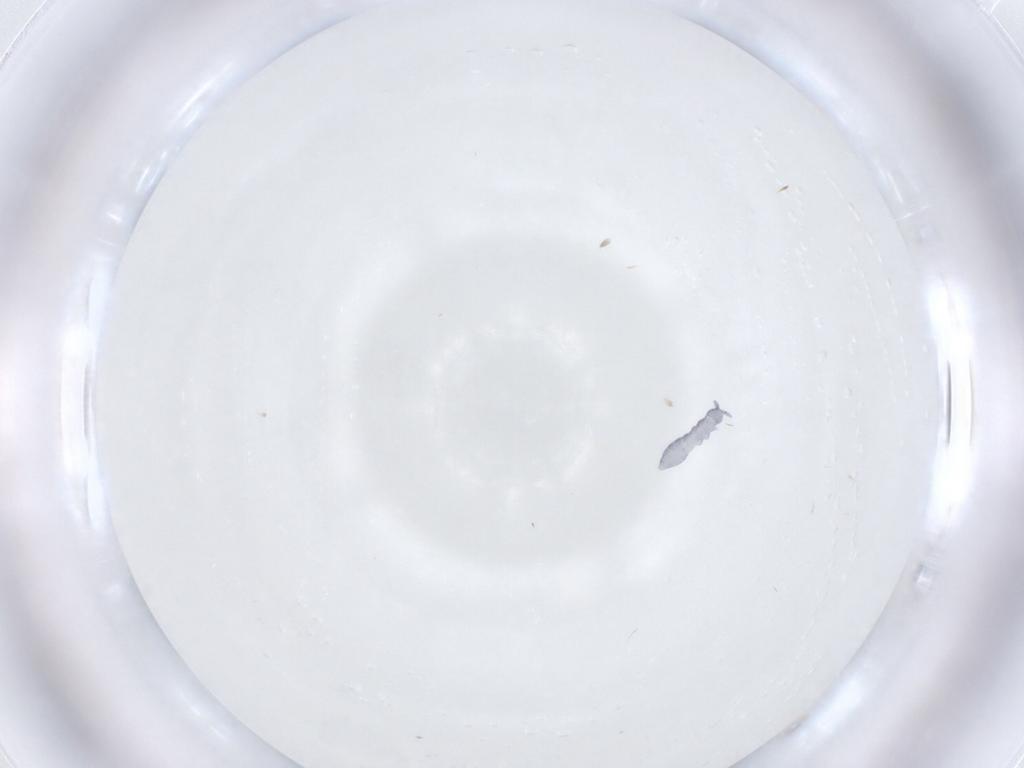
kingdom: Animalia
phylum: Arthropoda
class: Collembola
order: Poduromorpha
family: Hypogastruridae
